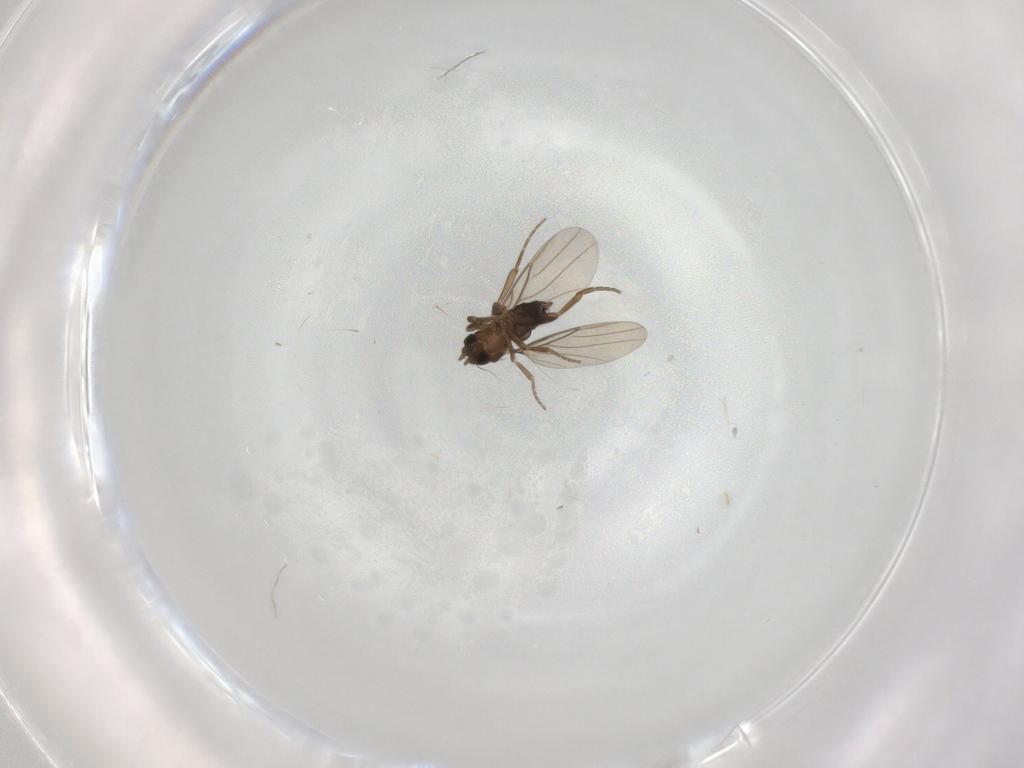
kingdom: Animalia
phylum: Arthropoda
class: Insecta
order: Diptera
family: Phoridae
